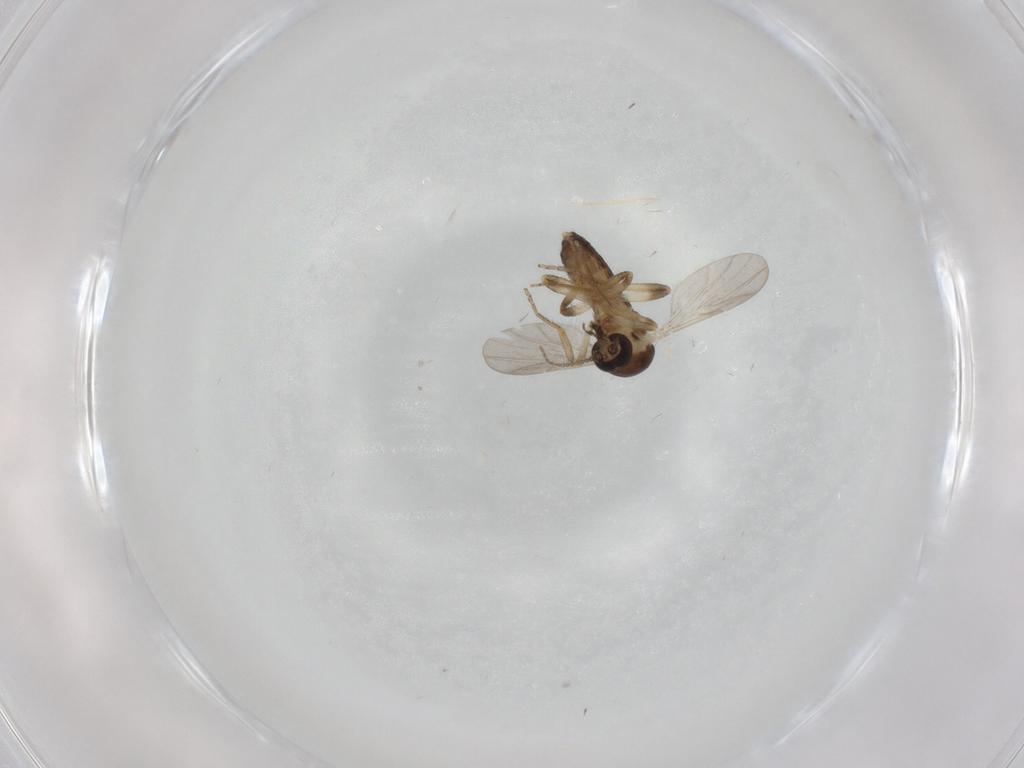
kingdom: Animalia
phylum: Arthropoda
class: Insecta
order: Diptera
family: Ceratopogonidae
